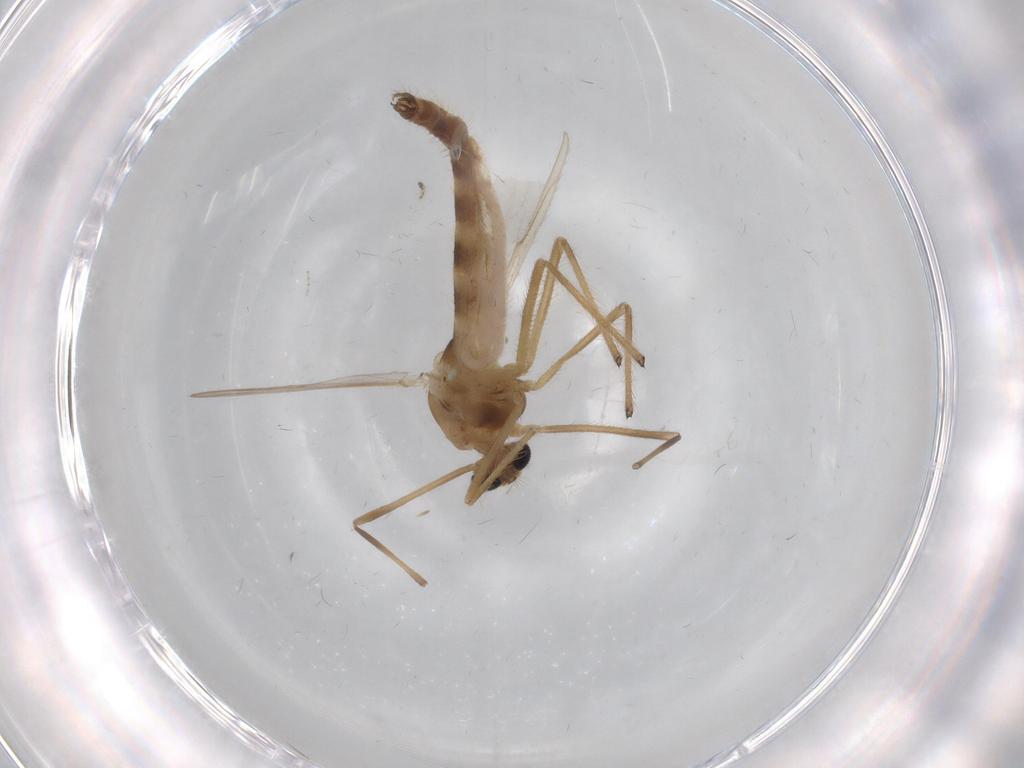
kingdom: Animalia
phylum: Arthropoda
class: Insecta
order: Diptera
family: Chironomidae
